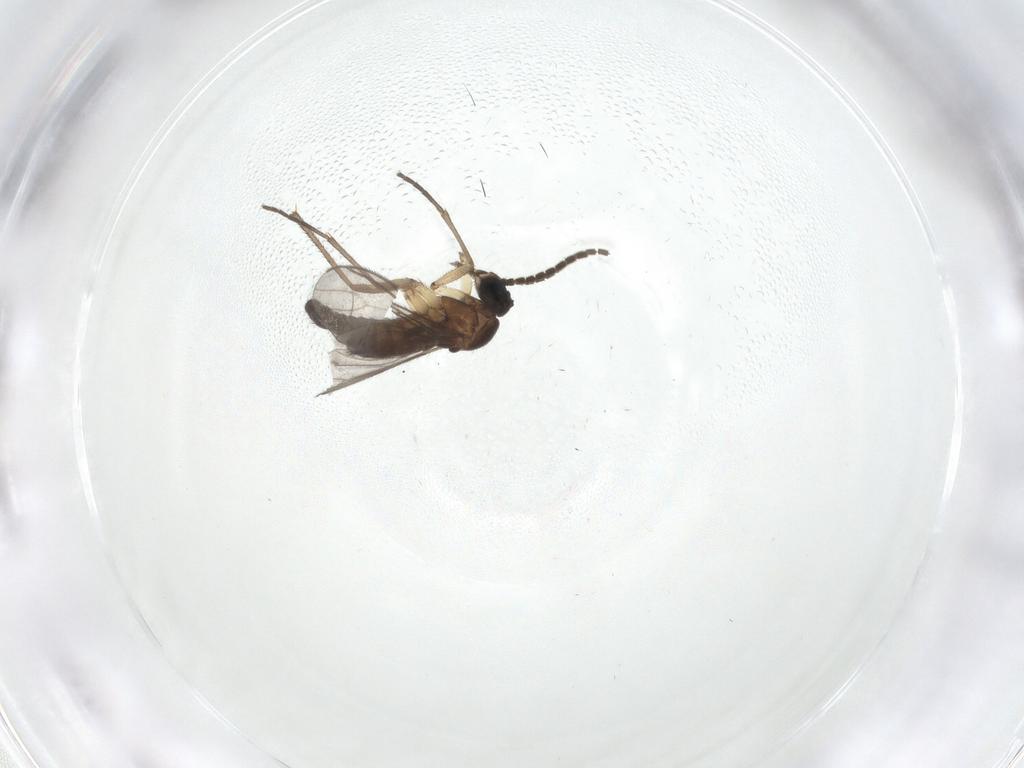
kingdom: Animalia
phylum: Arthropoda
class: Insecta
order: Diptera
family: Sciaridae
